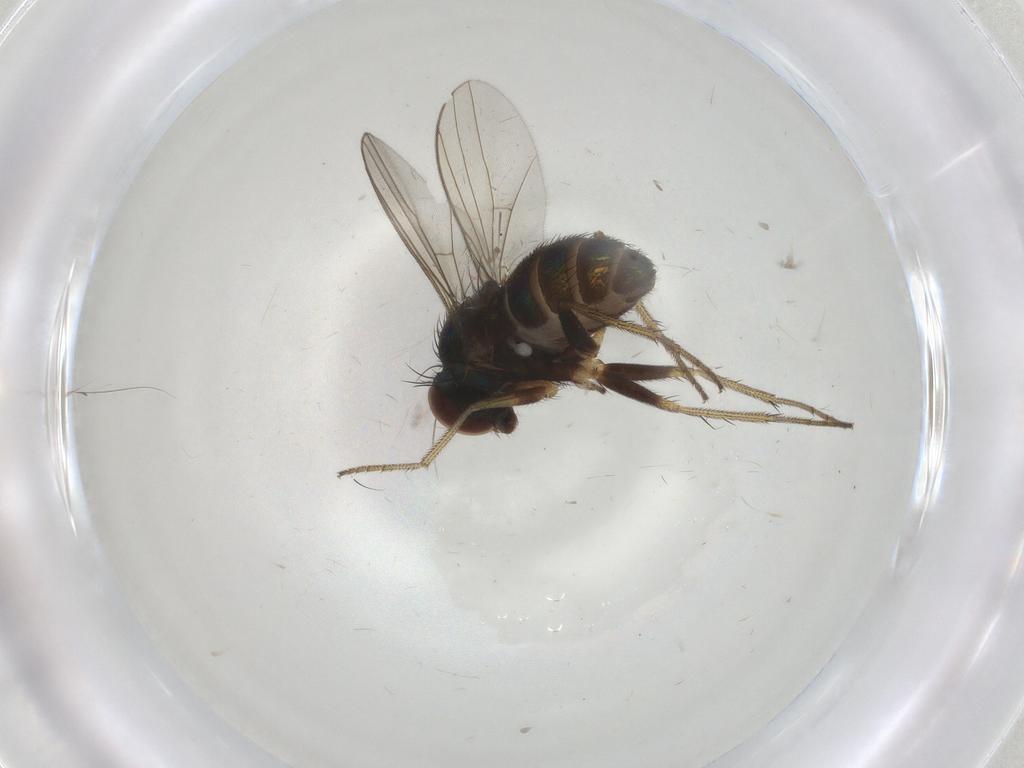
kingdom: Animalia
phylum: Arthropoda
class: Insecta
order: Diptera
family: Dolichopodidae
